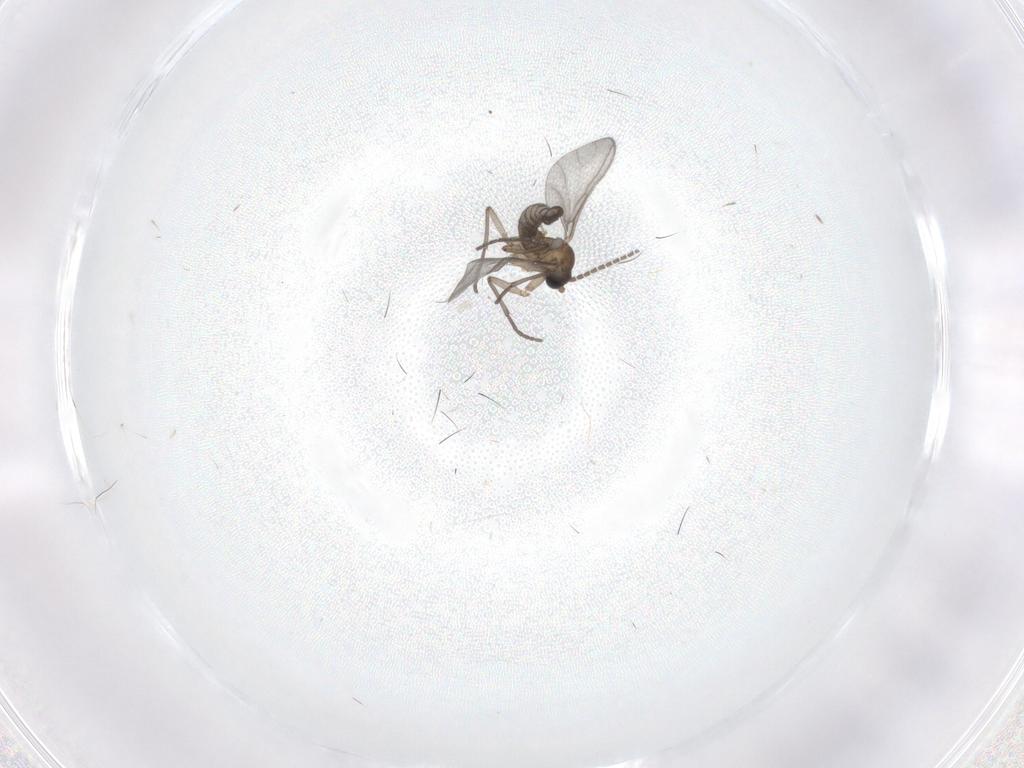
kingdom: Animalia
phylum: Arthropoda
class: Insecta
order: Diptera
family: Sciaridae
